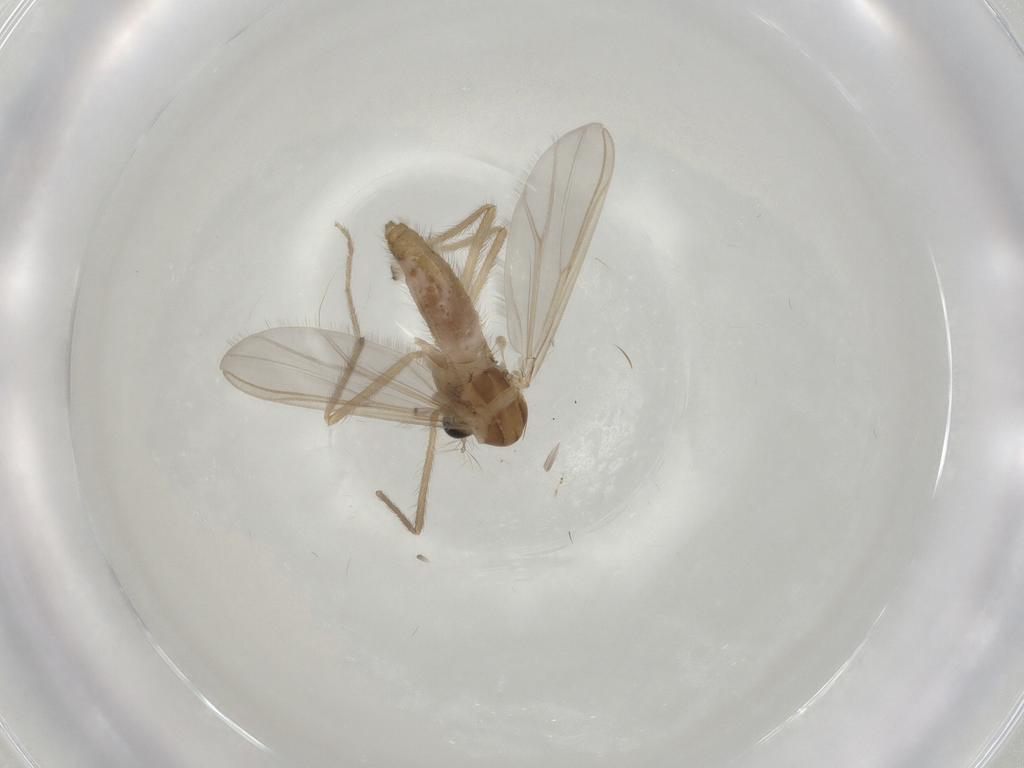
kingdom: Animalia
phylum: Arthropoda
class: Insecta
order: Diptera
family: Chironomidae
